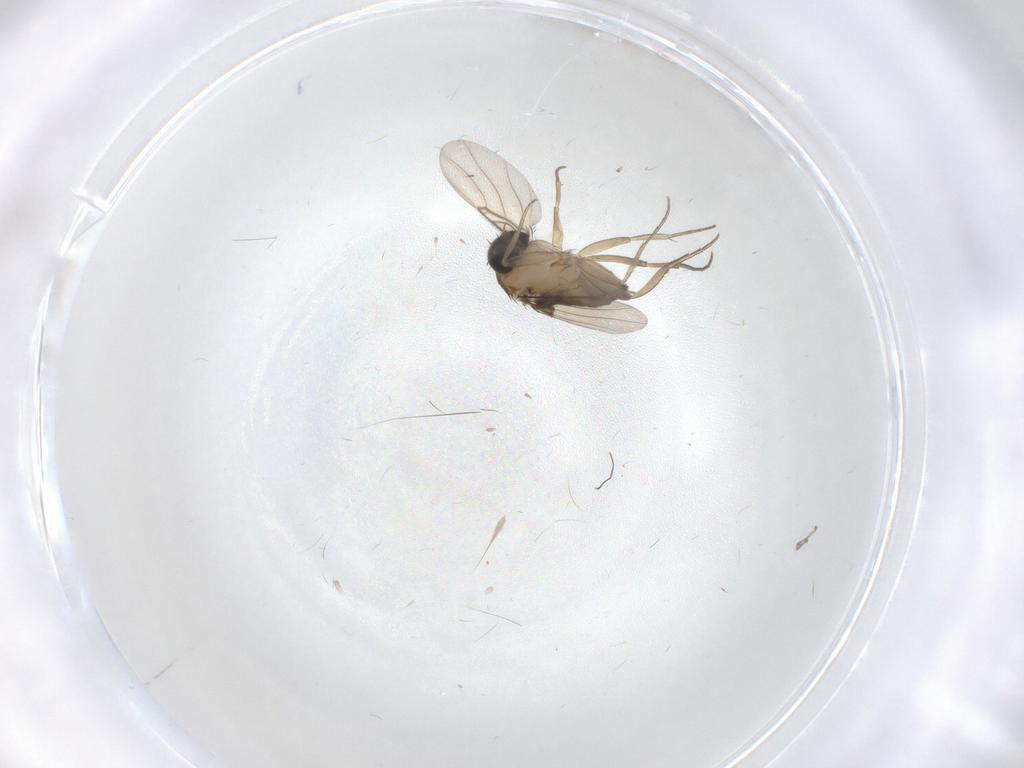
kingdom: Animalia
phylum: Arthropoda
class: Insecta
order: Diptera
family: Phoridae
